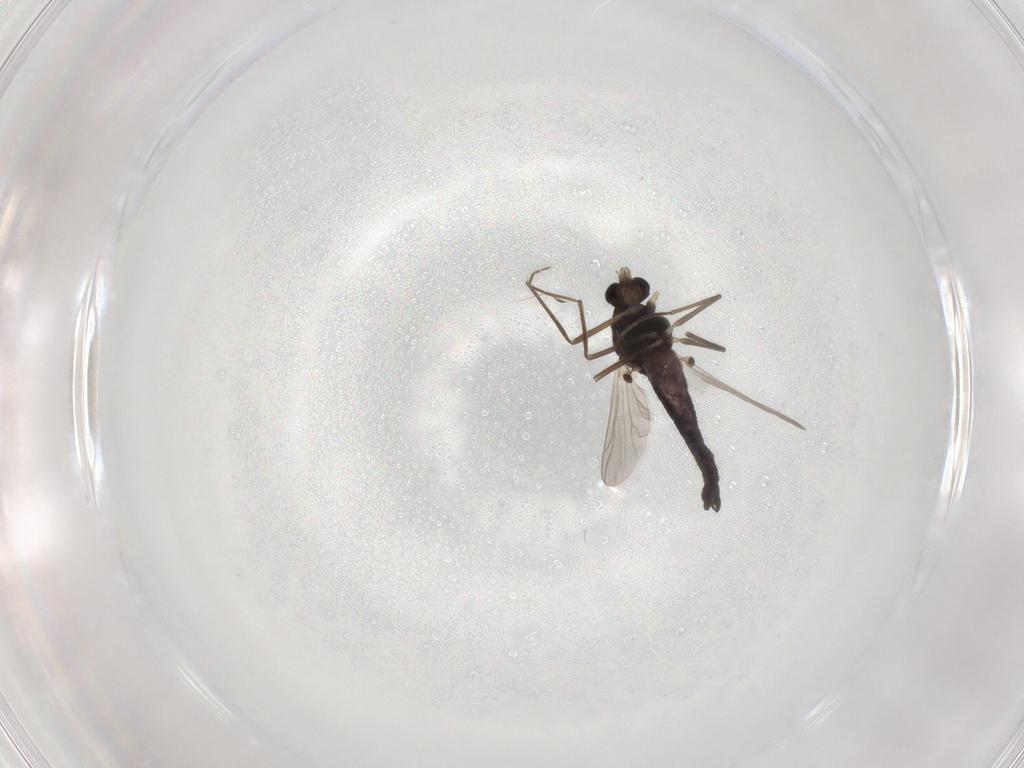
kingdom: Animalia
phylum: Arthropoda
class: Insecta
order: Diptera
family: Chironomidae
